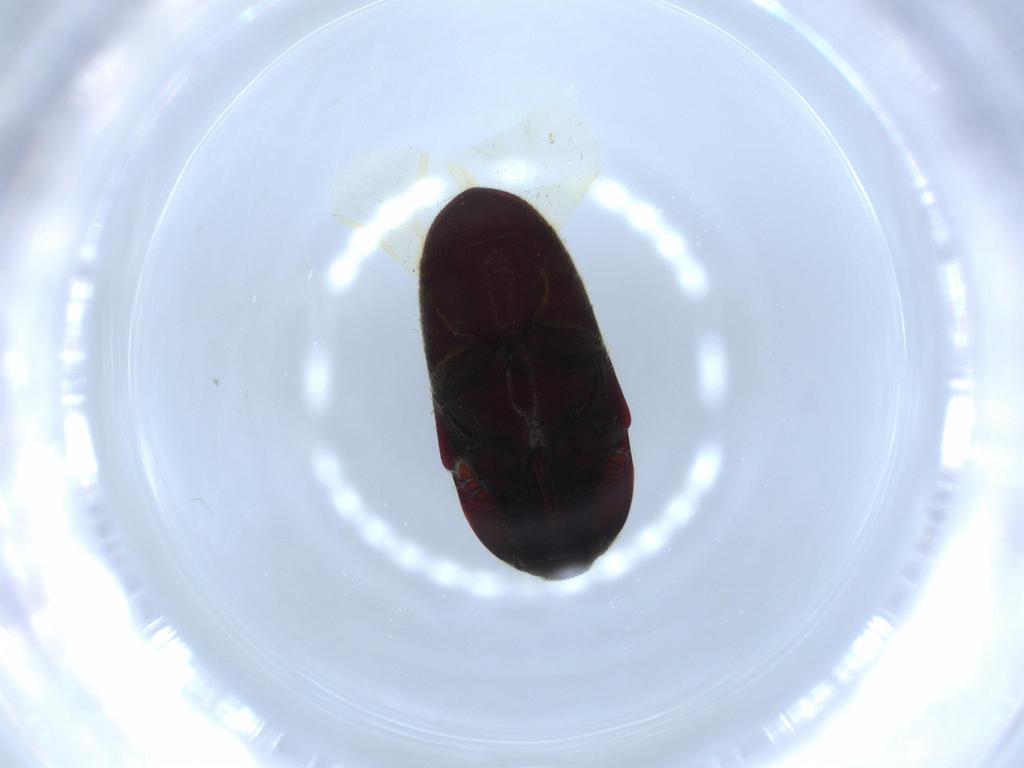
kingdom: Animalia
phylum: Arthropoda
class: Insecta
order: Coleoptera
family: Throscidae
